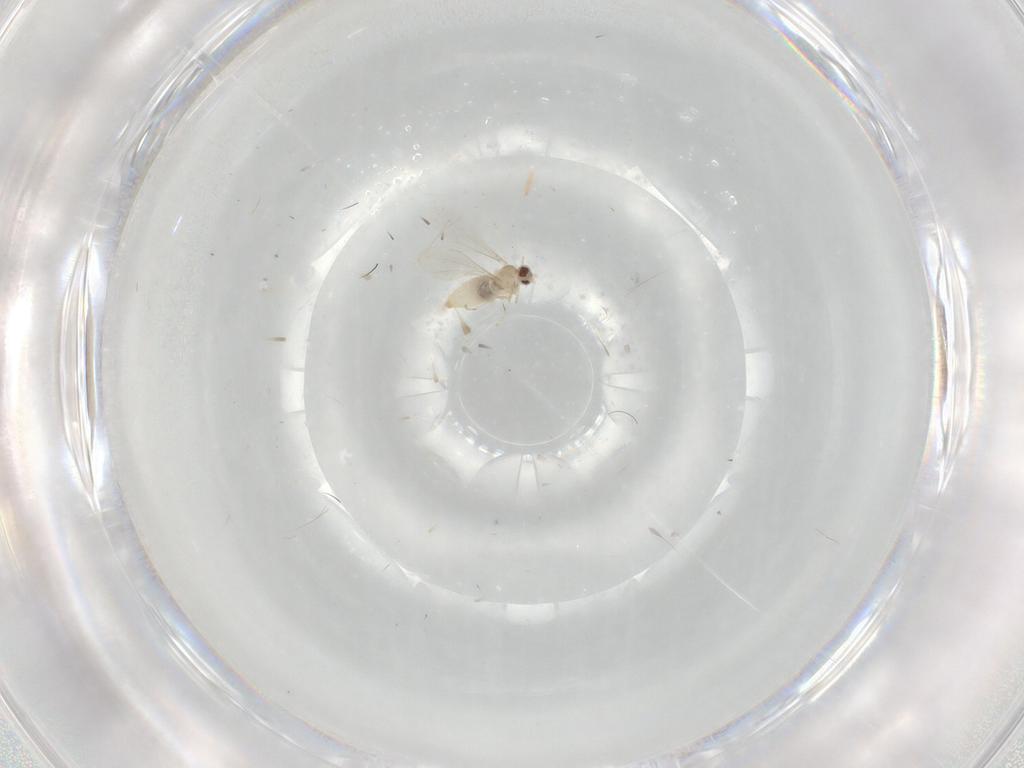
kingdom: Animalia
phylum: Arthropoda
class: Insecta
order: Diptera
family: Cecidomyiidae
